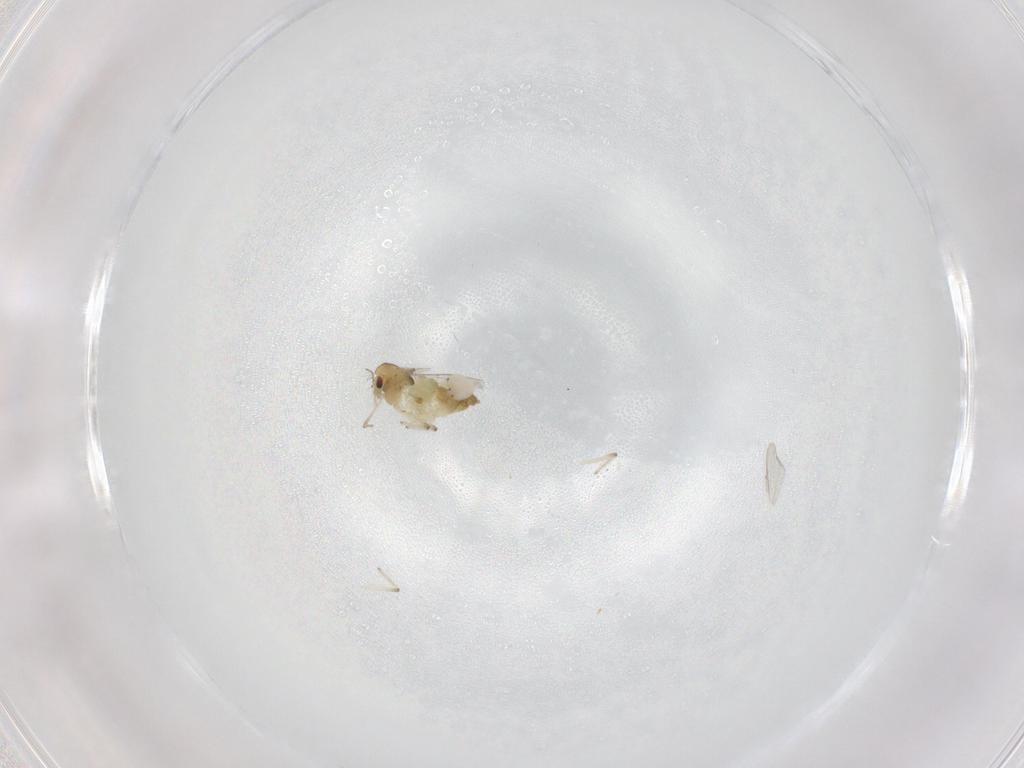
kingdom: Animalia
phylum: Arthropoda
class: Insecta
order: Diptera
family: Chironomidae
